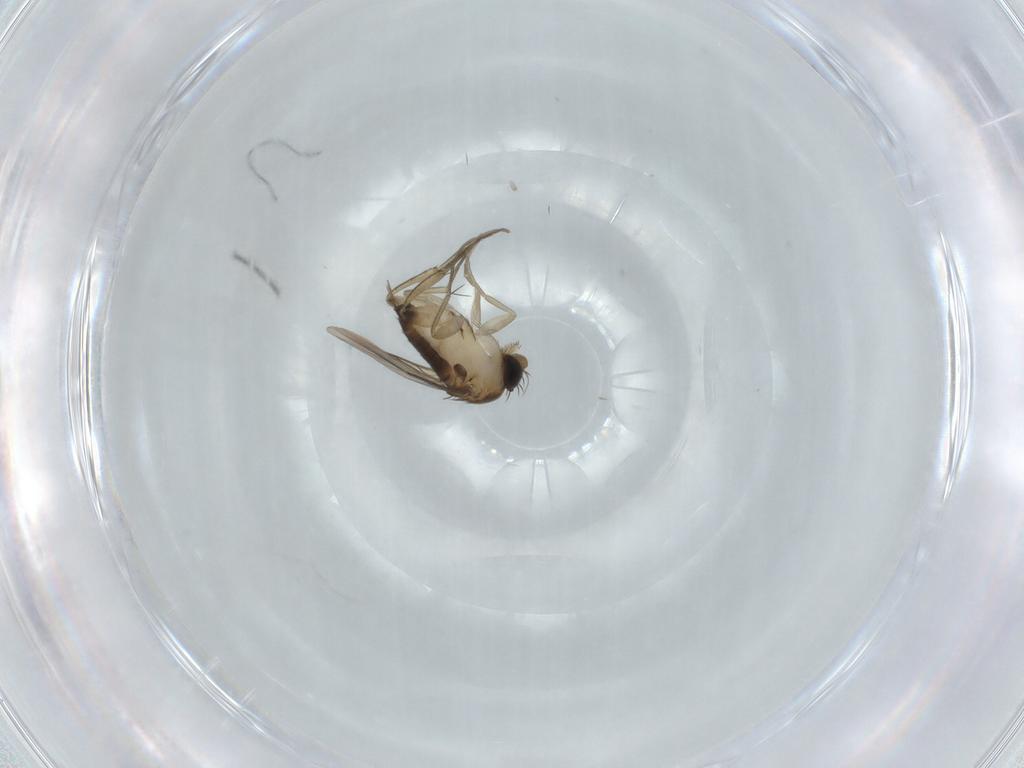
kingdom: Animalia
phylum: Arthropoda
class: Insecta
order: Diptera
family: Phoridae
